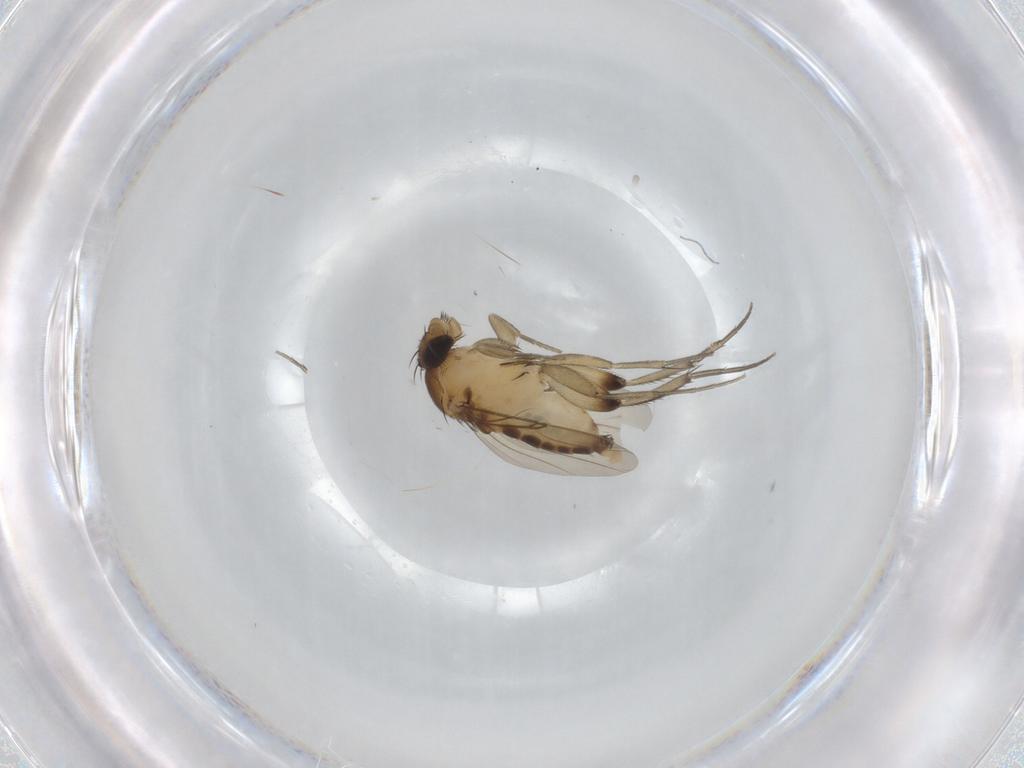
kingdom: Animalia
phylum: Arthropoda
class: Insecta
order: Diptera
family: Phoridae
